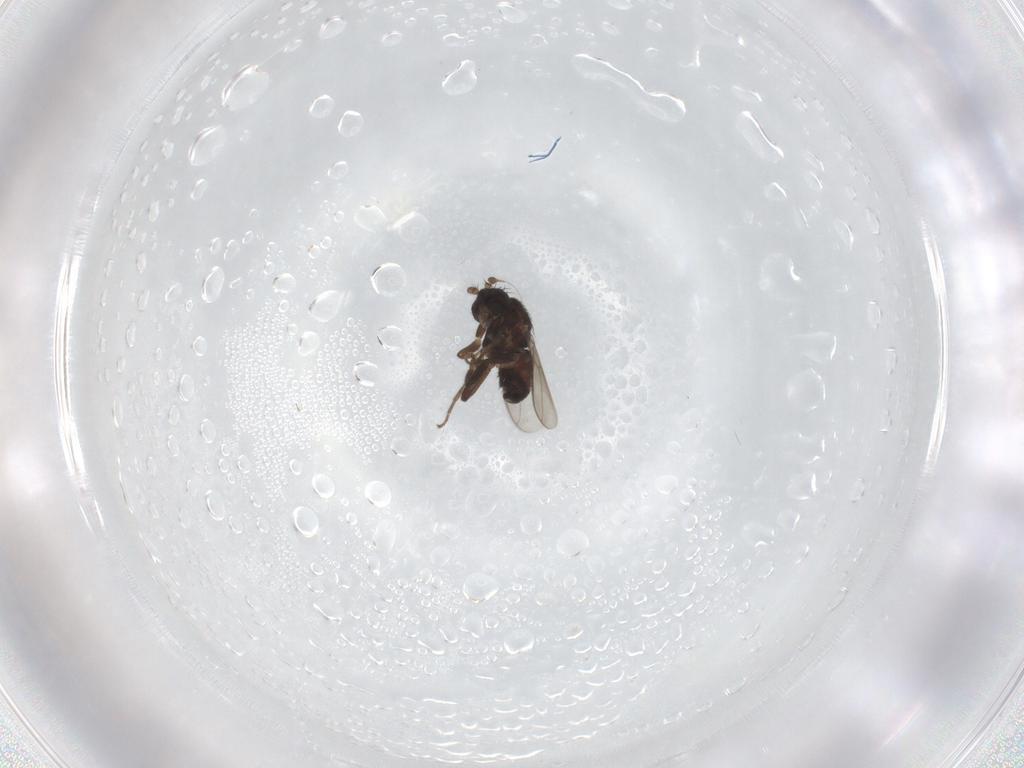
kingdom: Animalia
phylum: Arthropoda
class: Insecta
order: Diptera
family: Sphaeroceridae
